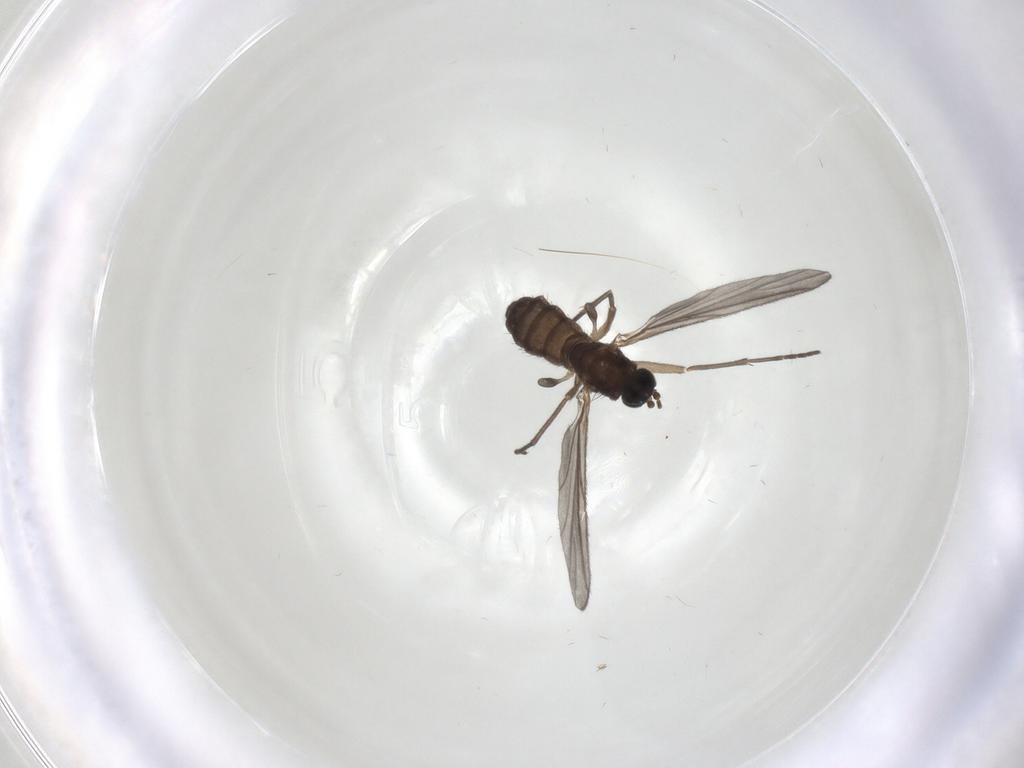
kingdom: Animalia
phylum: Arthropoda
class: Insecta
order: Diptera
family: Sciaridae
